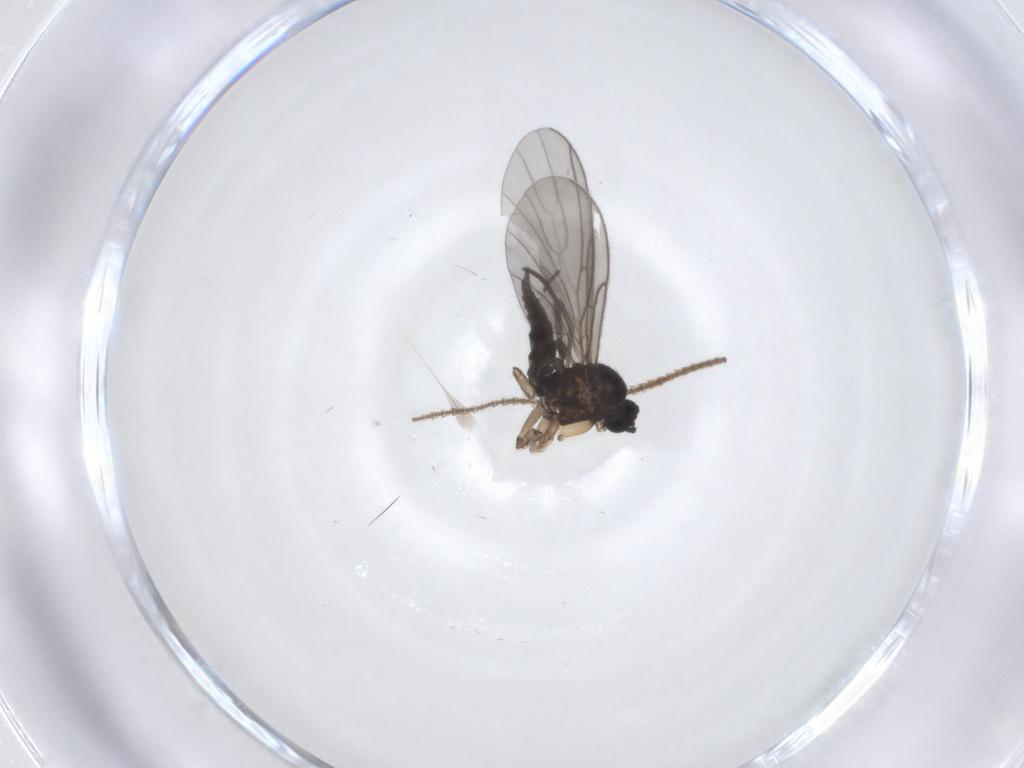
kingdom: Animalia
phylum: Arthropoda
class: Insecta
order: Diptera
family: Sciaridae
